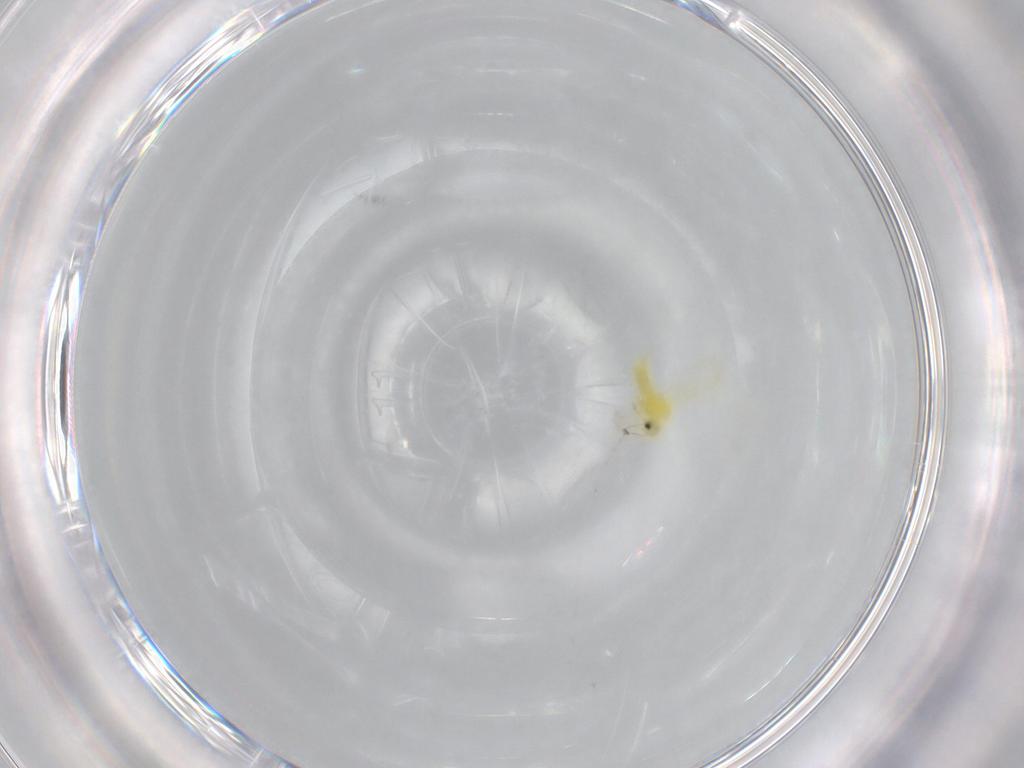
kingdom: Animalia
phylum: Arthropoda
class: Insecta
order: Hemiptera
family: Cicadellidae
